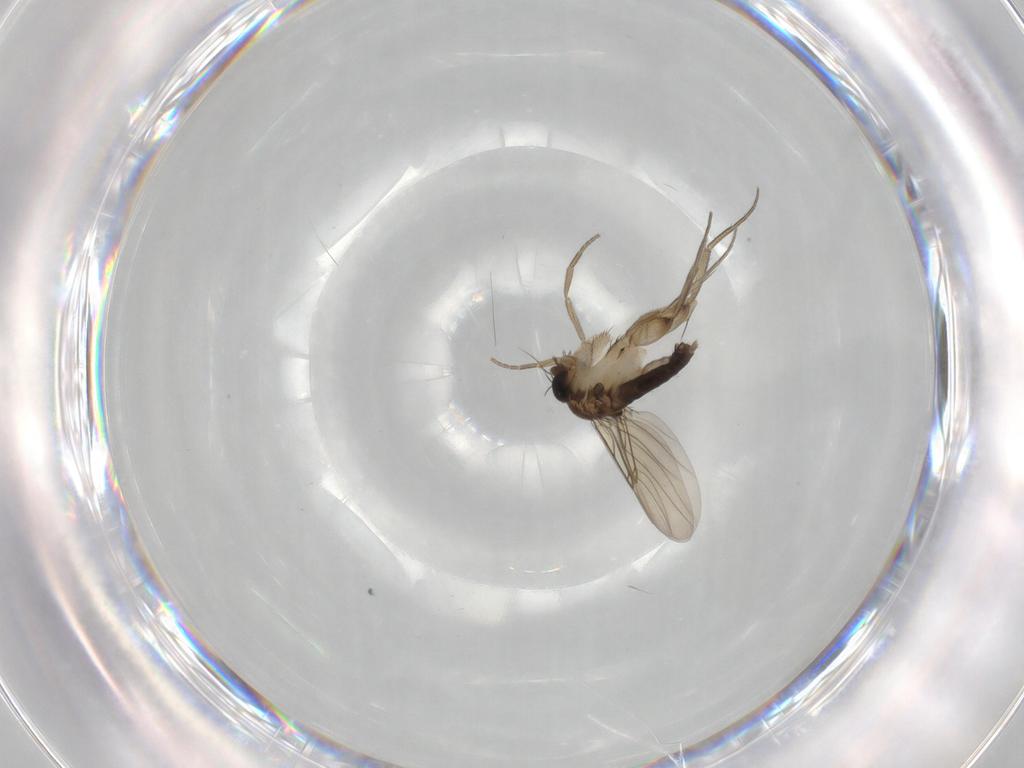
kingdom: Animalia
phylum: Arthropoda
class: Insecta
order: Diptera
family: Phoridae
